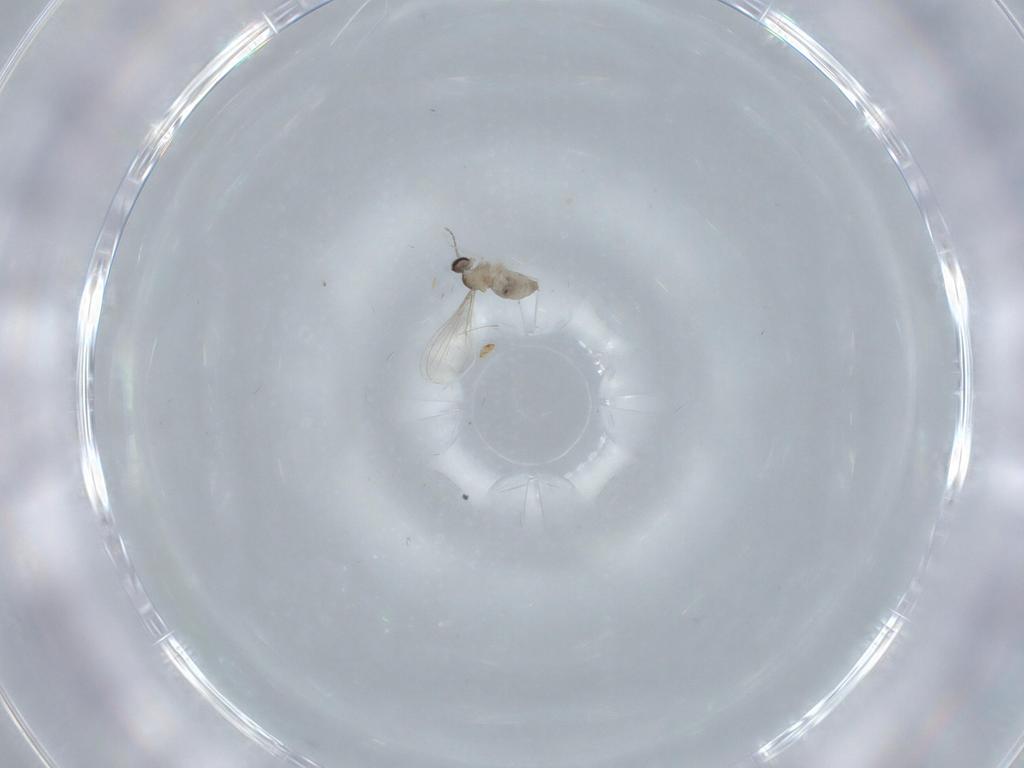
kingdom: Animalia
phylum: Arthropoda
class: Insecta
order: Diptera
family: Cecidomyiidae
